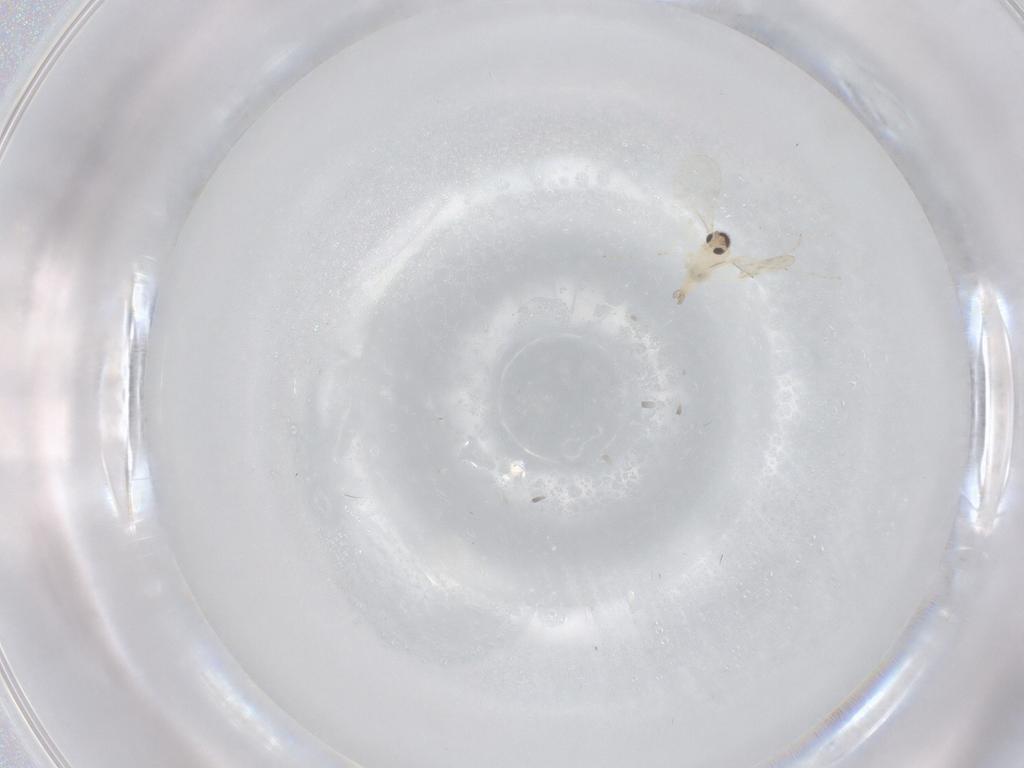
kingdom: Animalia
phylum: Arthropoda
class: Insecta
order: Diptera
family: Cecidomyiidae
